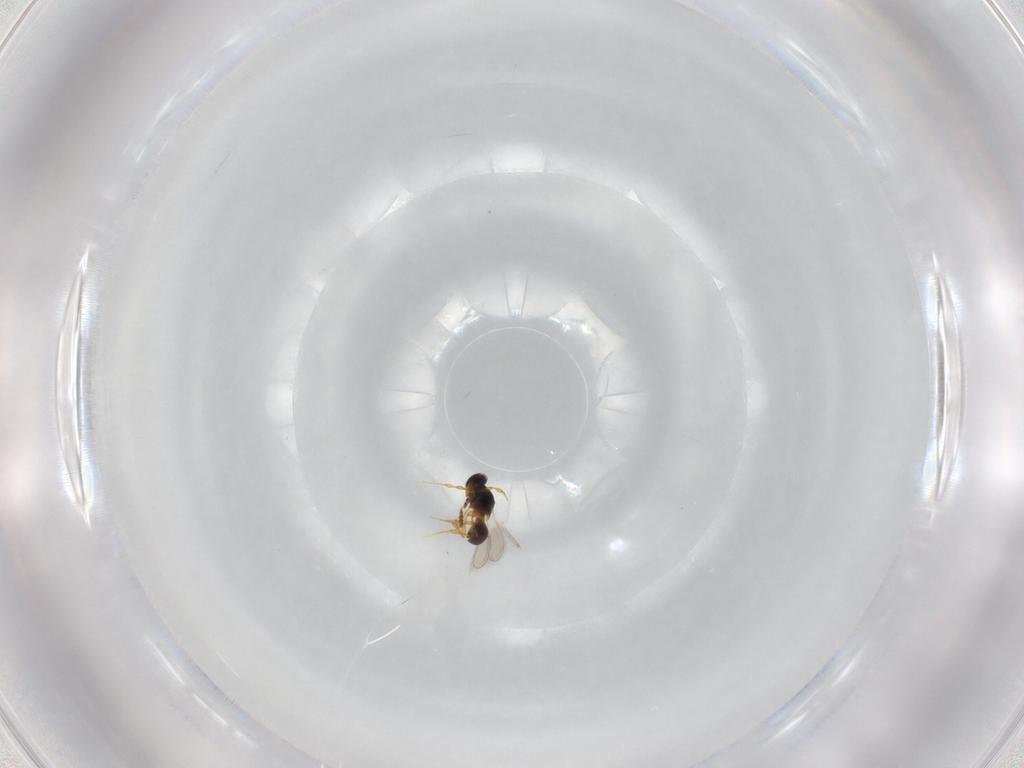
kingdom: Animalia
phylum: Arthropoda
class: Insecta
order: Hymenoptera
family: Platygastridae
